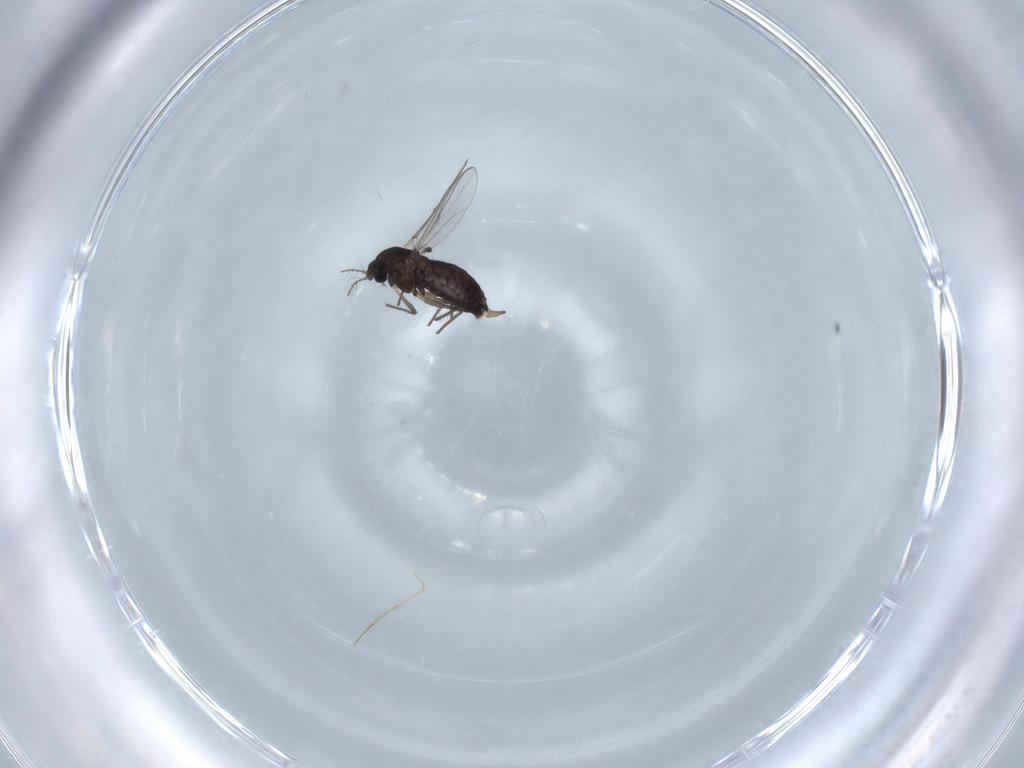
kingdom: Animalia
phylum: Arthropoda
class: Insecta
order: Diptera
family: Chironomidae
